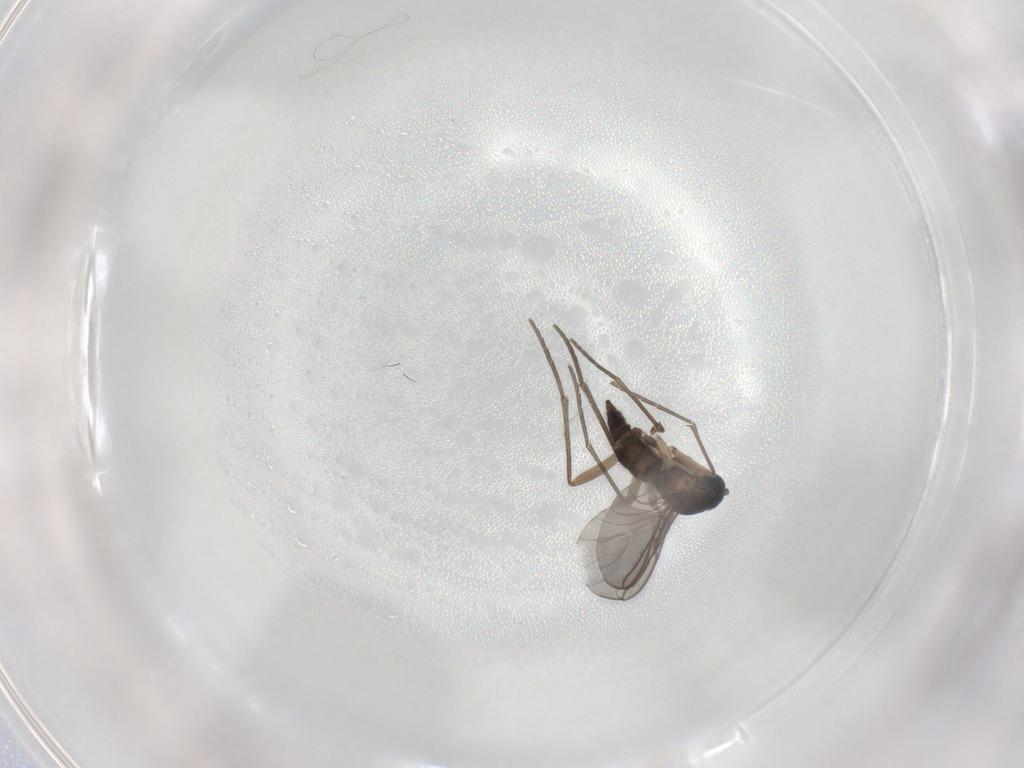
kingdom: Animalia
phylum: Arthropoda
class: Insecta
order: Diptera
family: Sciaridae
